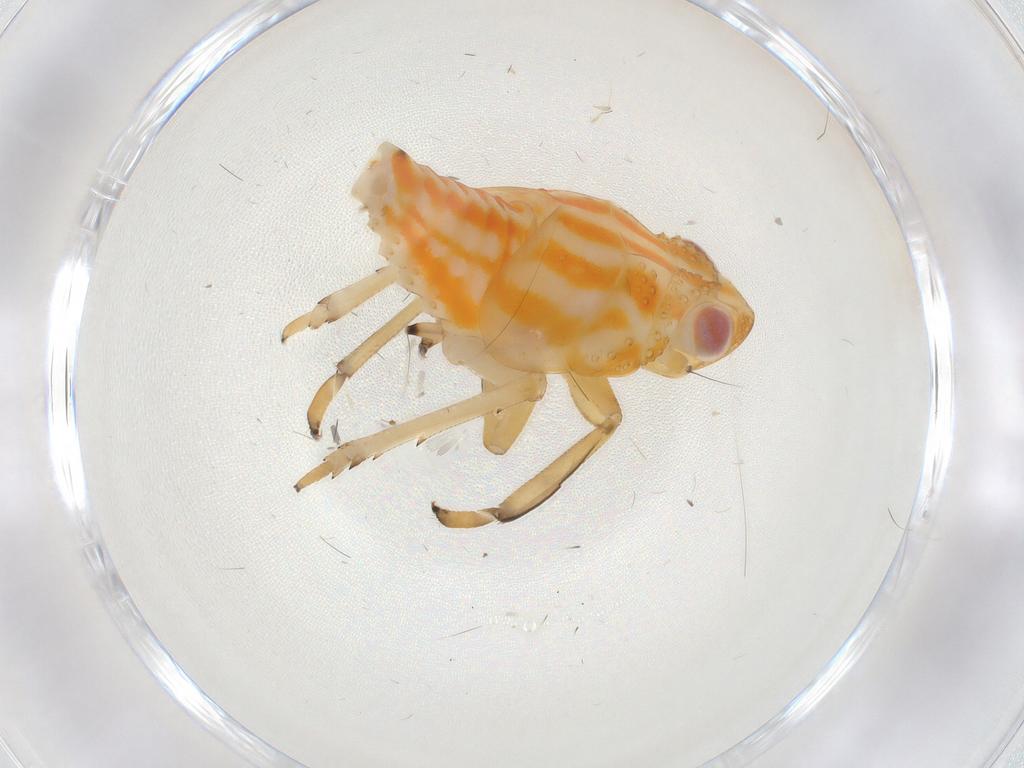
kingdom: Animalia
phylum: Arthropoda
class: Insecta
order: Hemiptera
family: Issidae
